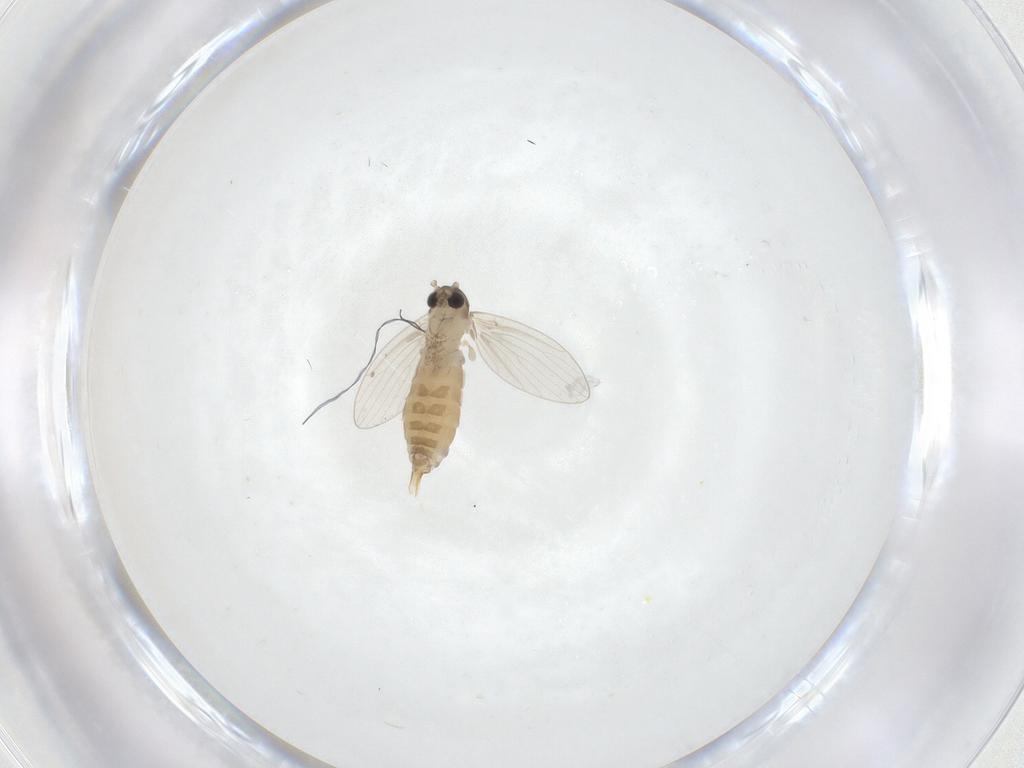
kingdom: Animalia
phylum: Arthropoda
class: Insecta
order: Diptera
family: Psychodidae
